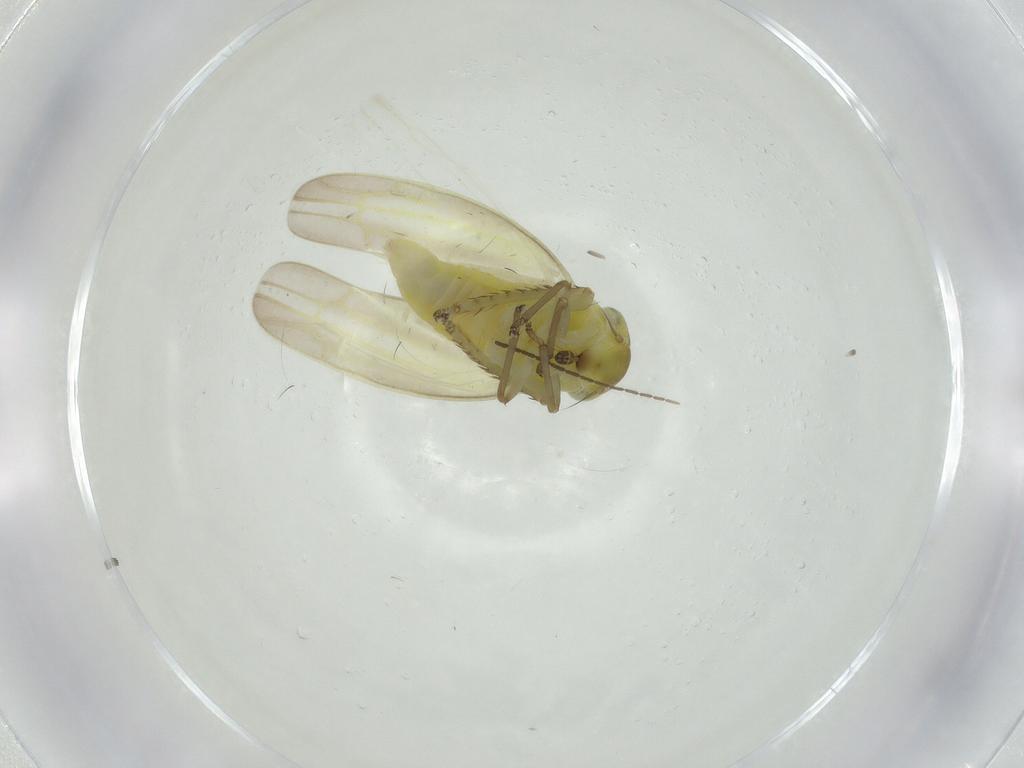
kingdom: Animalia
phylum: Arthropoda
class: Insecta
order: Hemiptera
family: Cicadellidae
